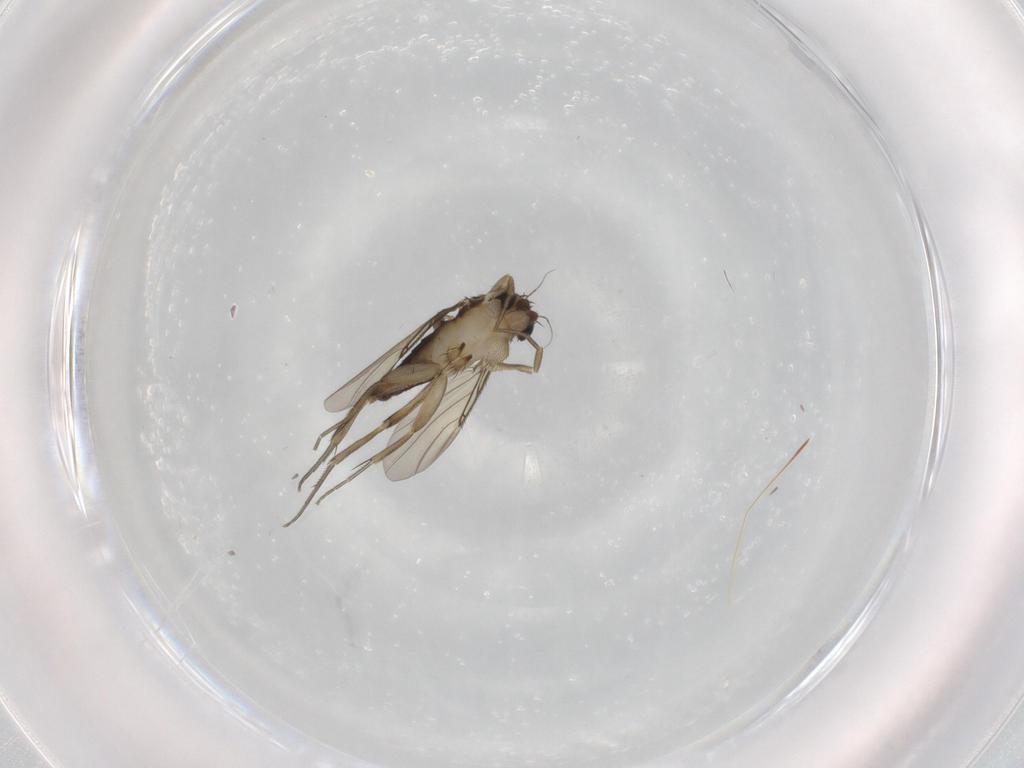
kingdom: Animalia
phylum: Arthropoda
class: Insecta
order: Diptera
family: Phoridae
